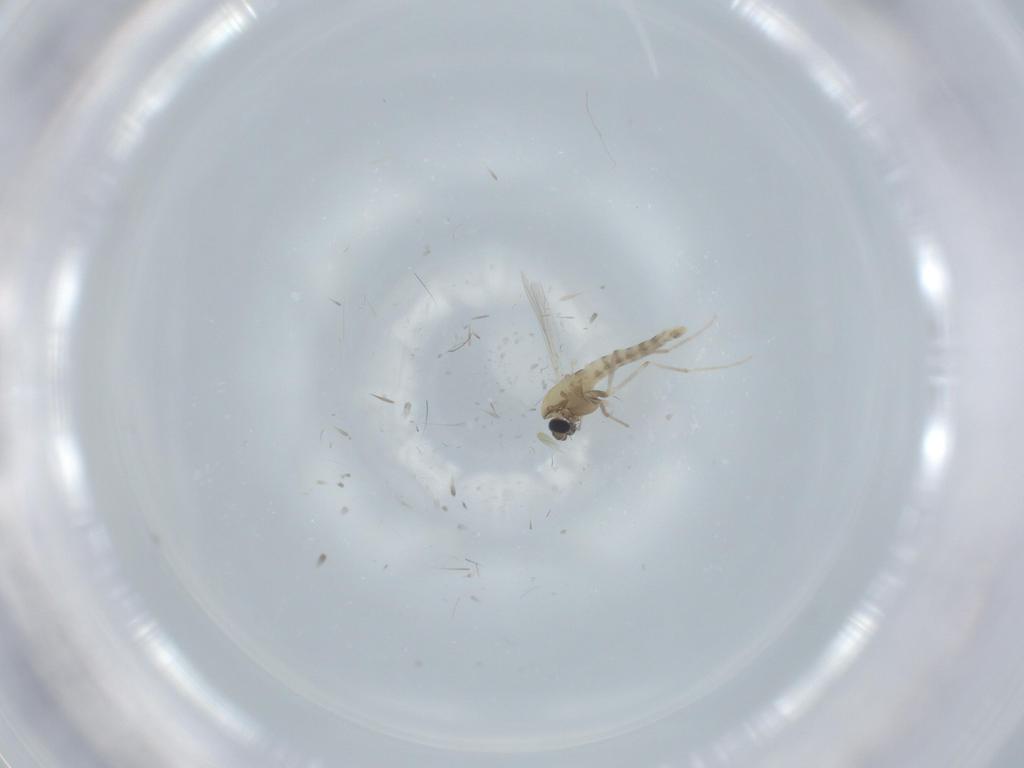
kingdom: Animalia
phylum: Arthropoda
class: Insecta
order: Diptera
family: Chironomidae
